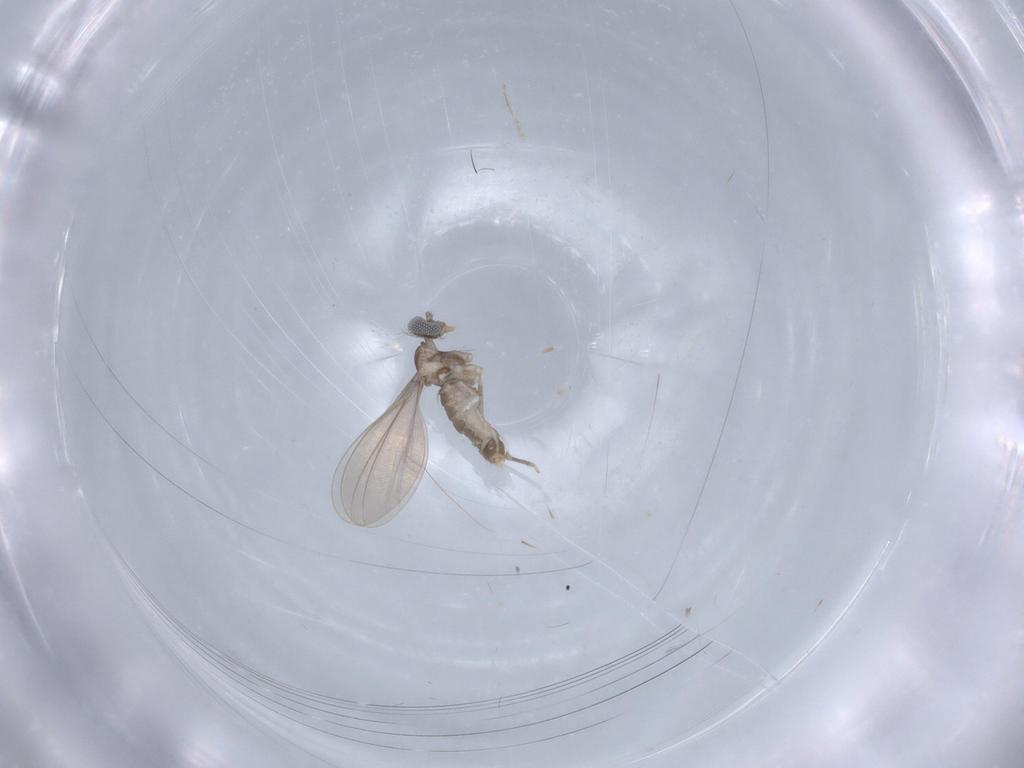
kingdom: Animalia
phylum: Arthropoda
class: Insecta
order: Diptera
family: Cecidomyiidae
